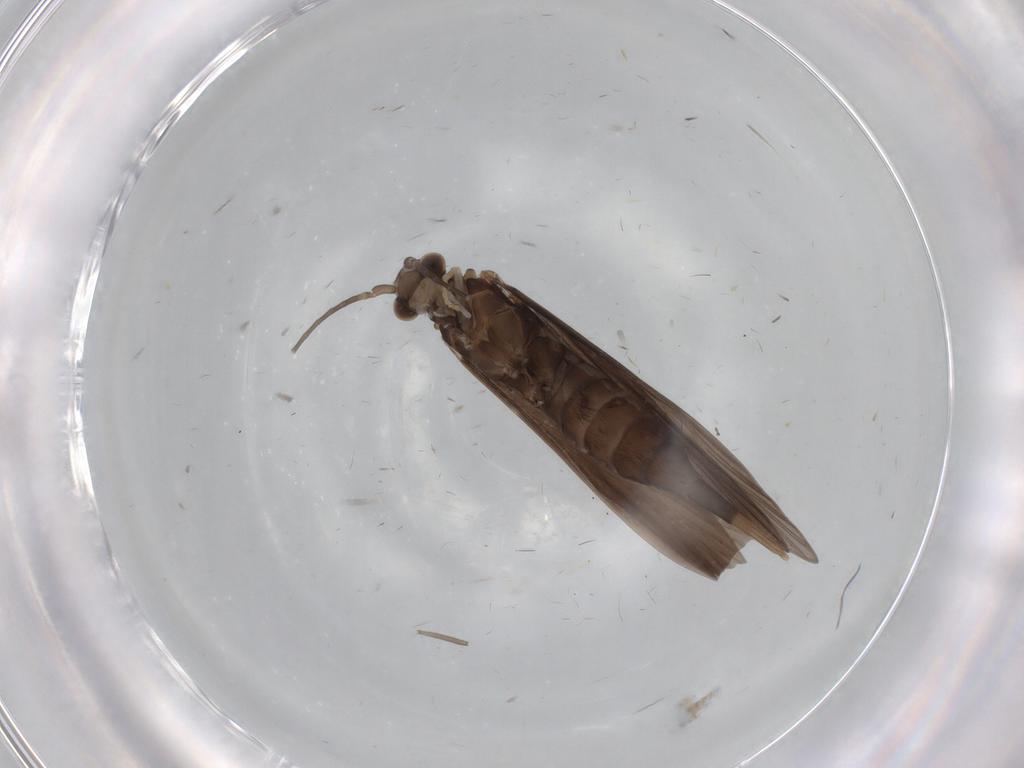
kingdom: Animalia
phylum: Arthropoda
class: Insecta
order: Trichoptera
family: Xiphocentronidae
